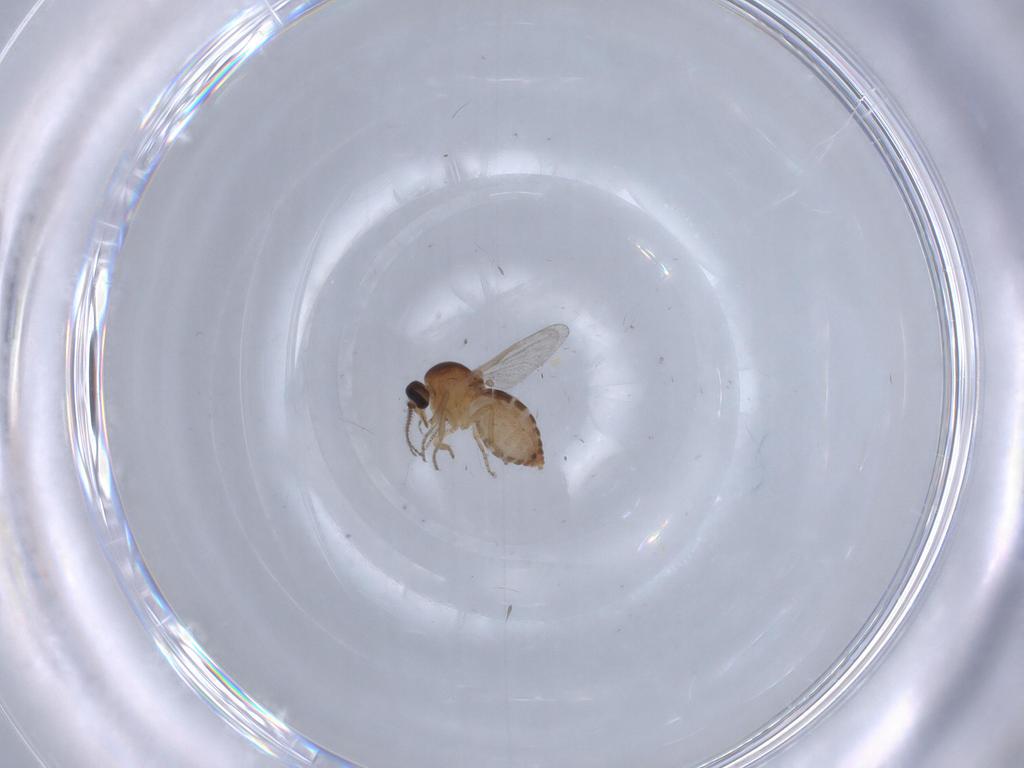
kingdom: Animalia
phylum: Arthropoda
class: Insecta
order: Diptera
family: Ceratopogonidae
